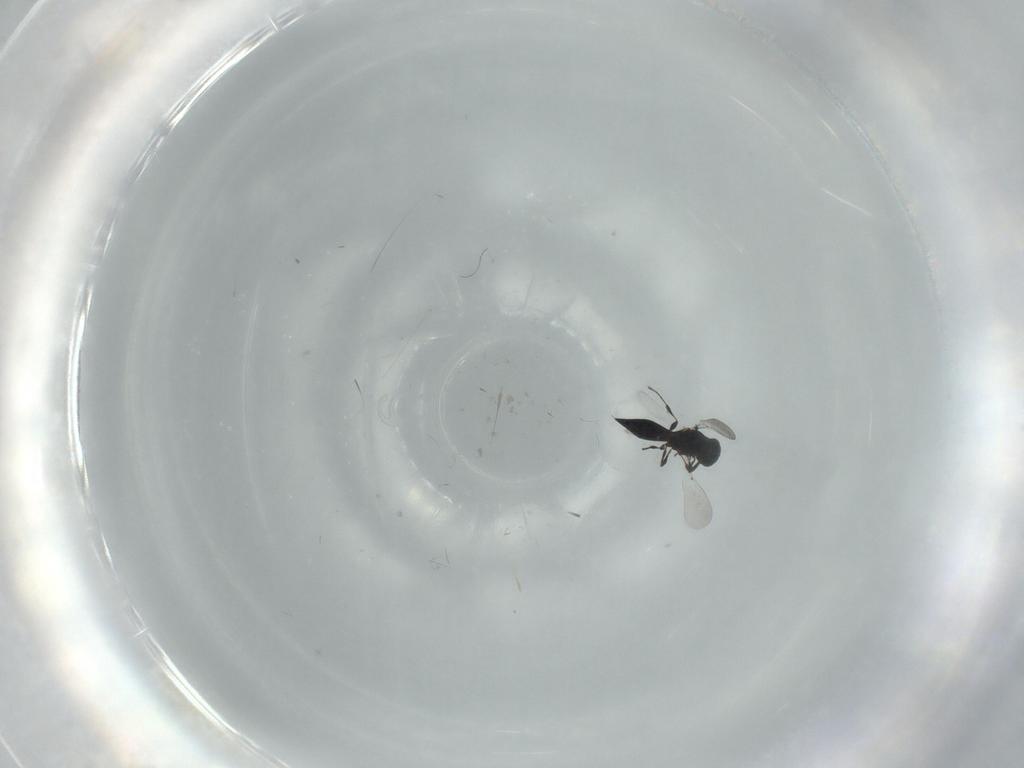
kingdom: Animalia
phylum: Arthropoda
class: Insecta
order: Hymenoptera
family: Platygastridae
